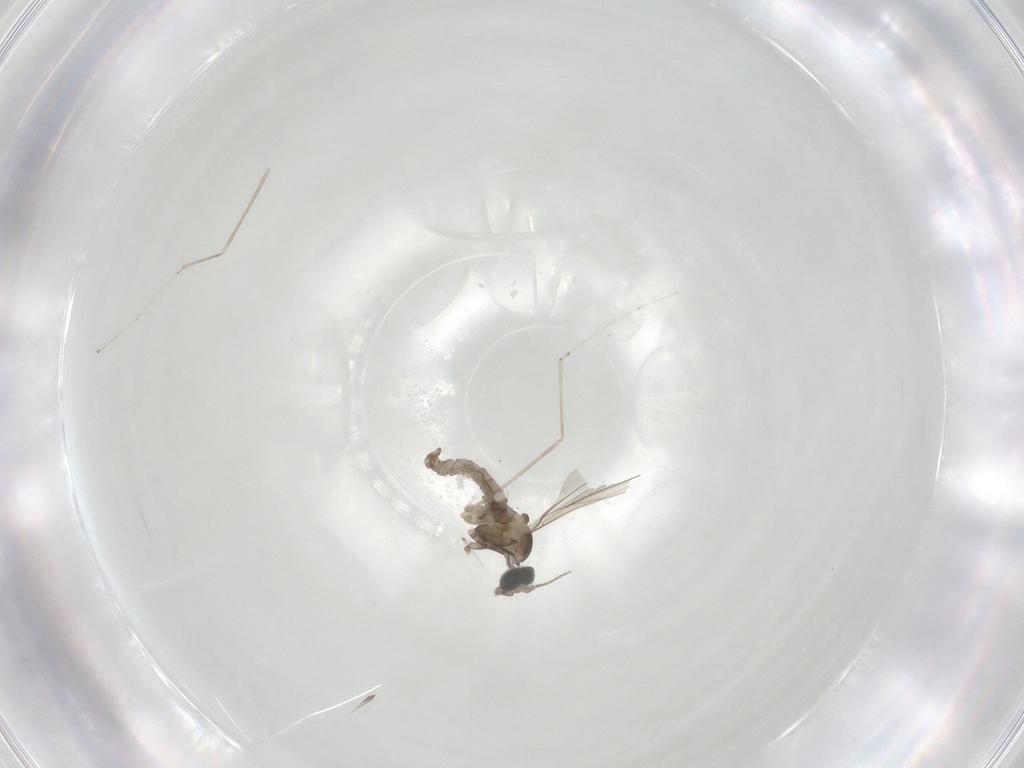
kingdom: Animalia
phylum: Arthropoda
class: Insecta
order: Diptera
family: Cecidomyiidae
